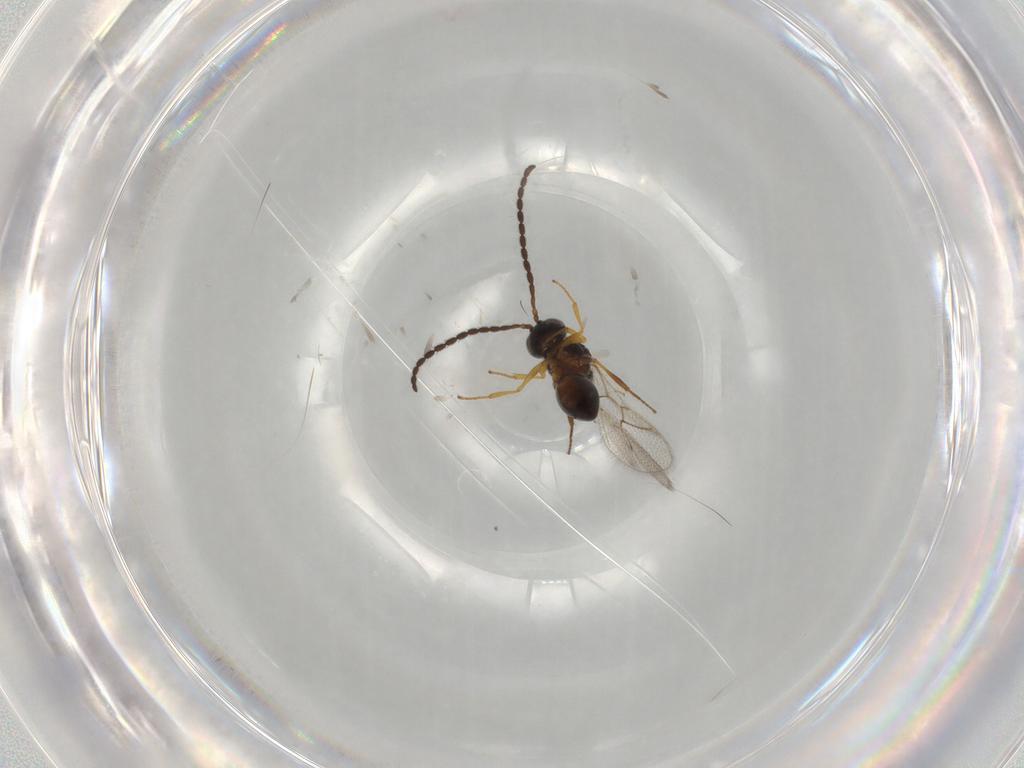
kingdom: Animalia
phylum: Arthropoda
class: Insecta
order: Hymenoptera
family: Figitidae
